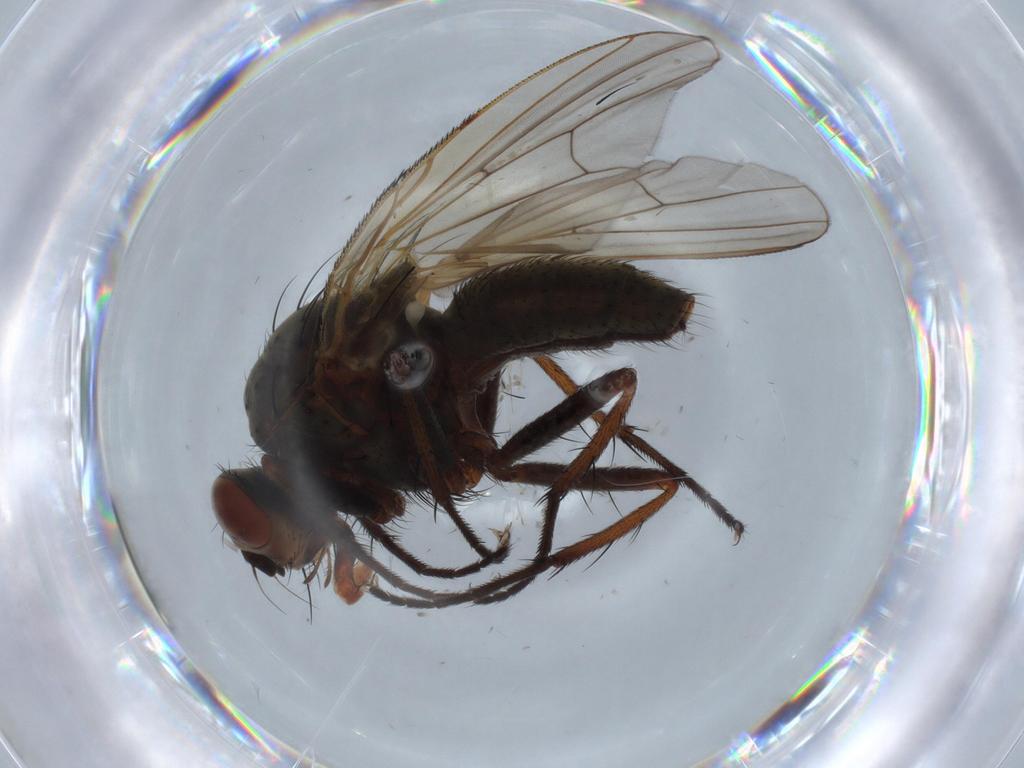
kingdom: Animalia
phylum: Arthropoda
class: Insecta
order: Diptera
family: Anthomyiidae
